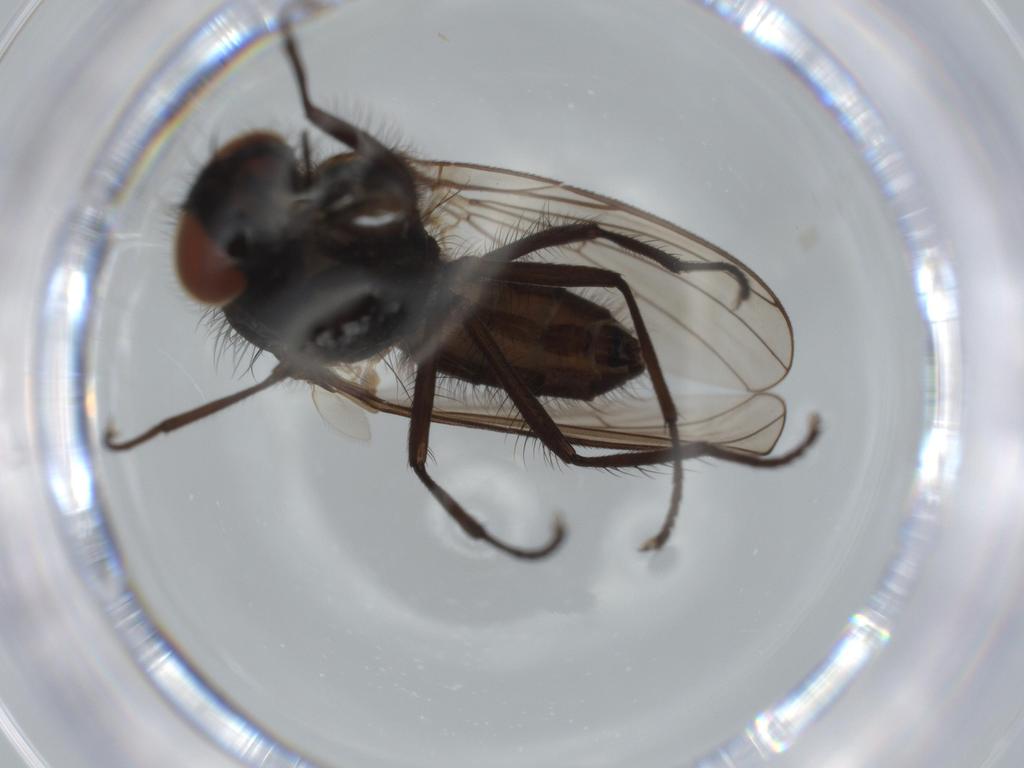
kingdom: Animalia
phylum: Arthropoda
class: Insecta
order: Diptera
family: Anthomyiidae
